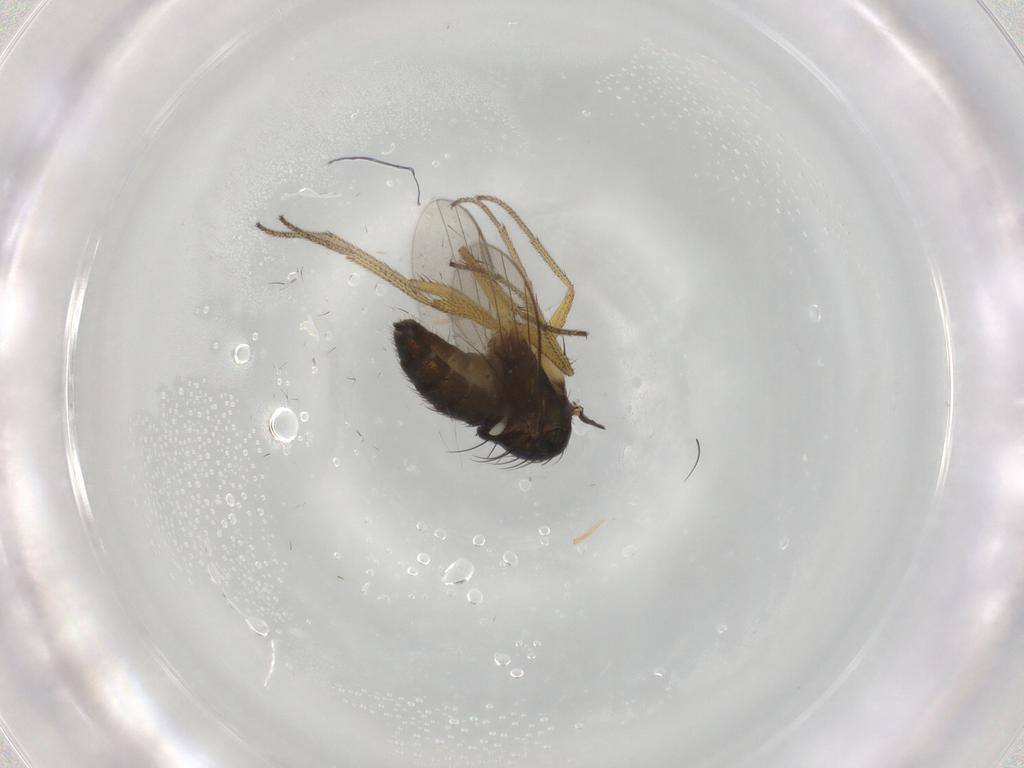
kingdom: Animalia
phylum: Arthropoda
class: Insecta
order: Diptera
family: Dolichopodidae
